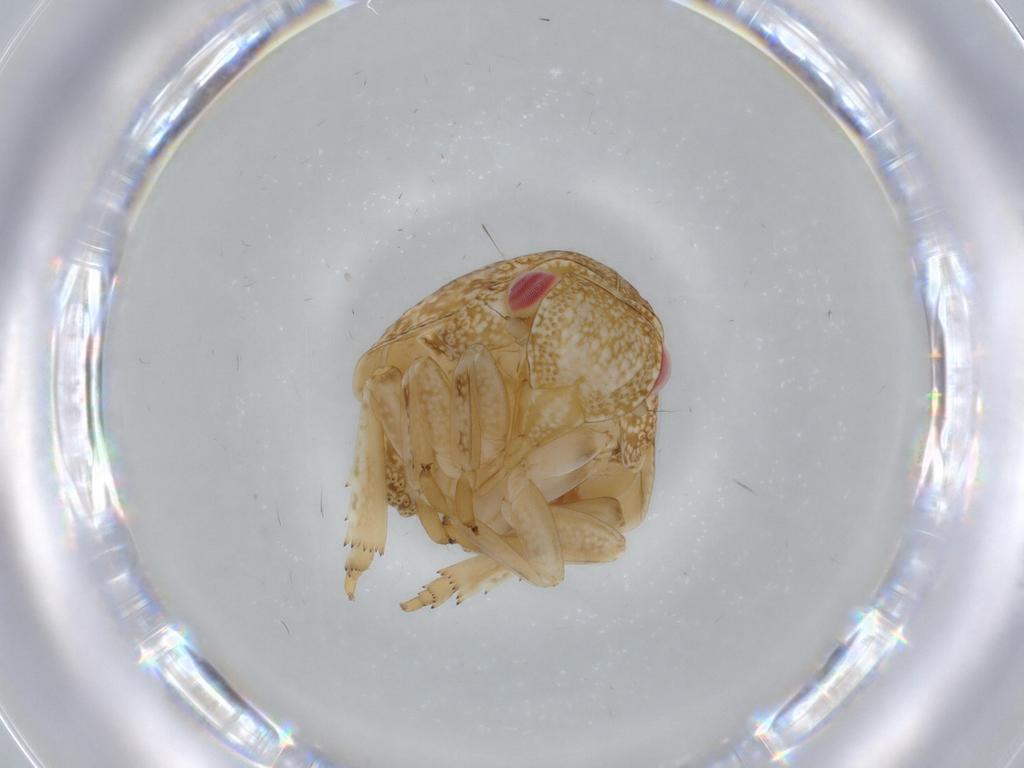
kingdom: Animalia
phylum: Arthropoda
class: Insecta
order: Hemiptera
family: Acanaloniidae
